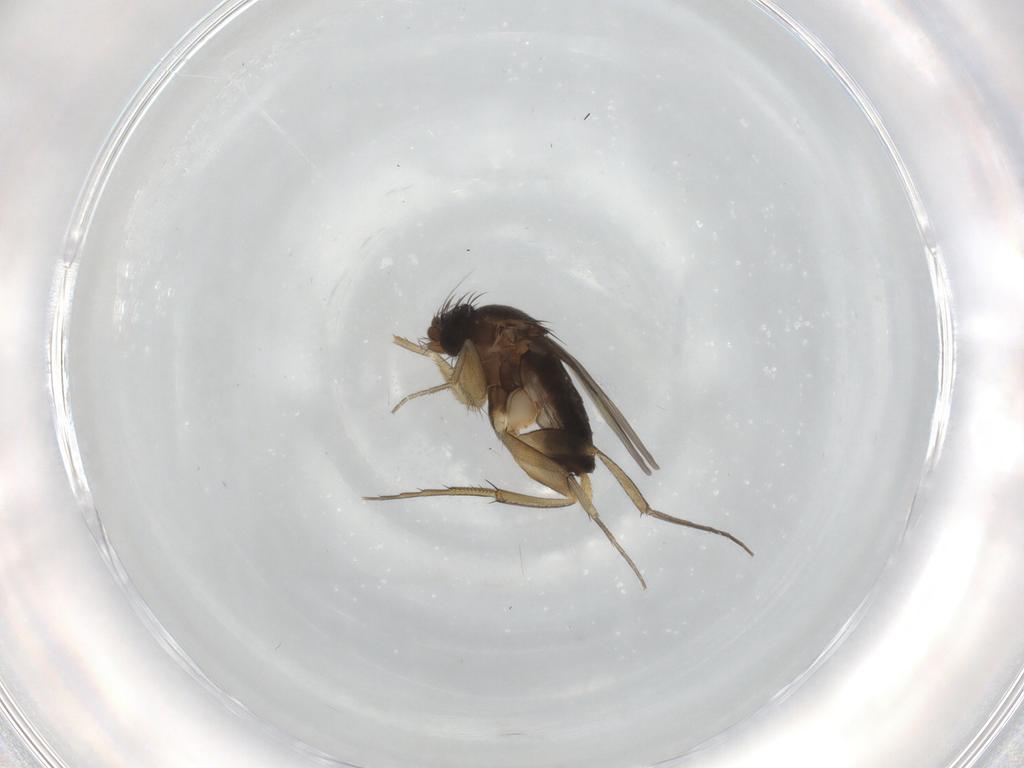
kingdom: Animalia
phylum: Arthropoda
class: Insecta
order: Diptera
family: Mycetophilidae
